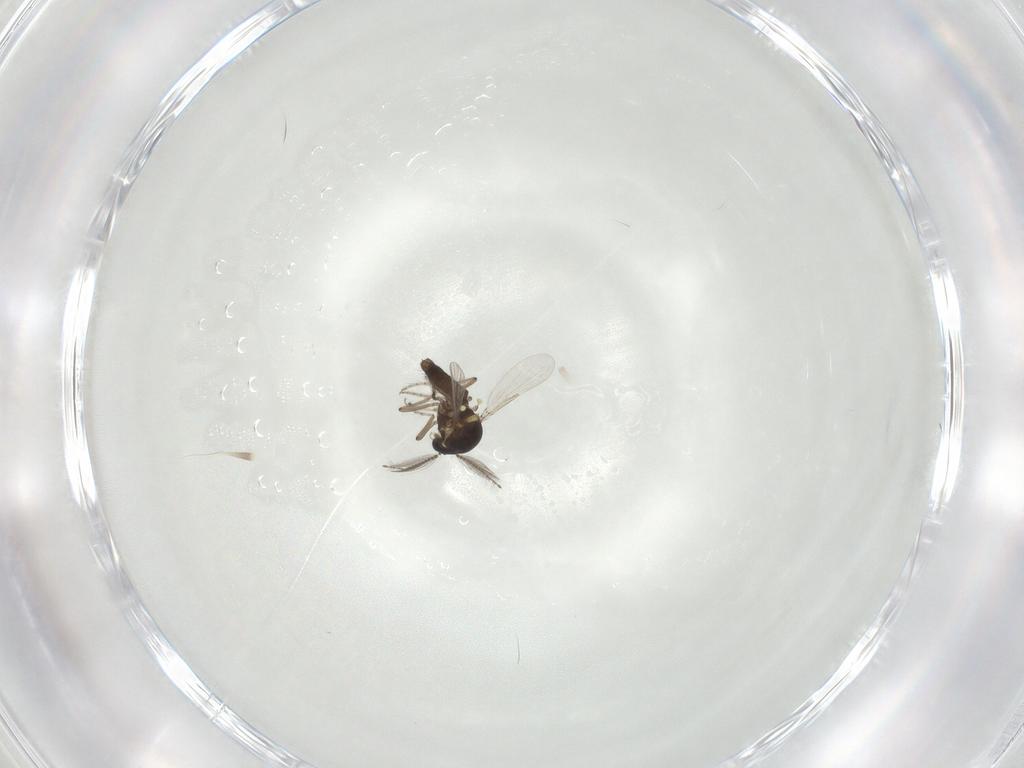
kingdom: Animalia
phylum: Arthropoda
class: Insecta
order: Diptera
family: Ceratopogonidae
